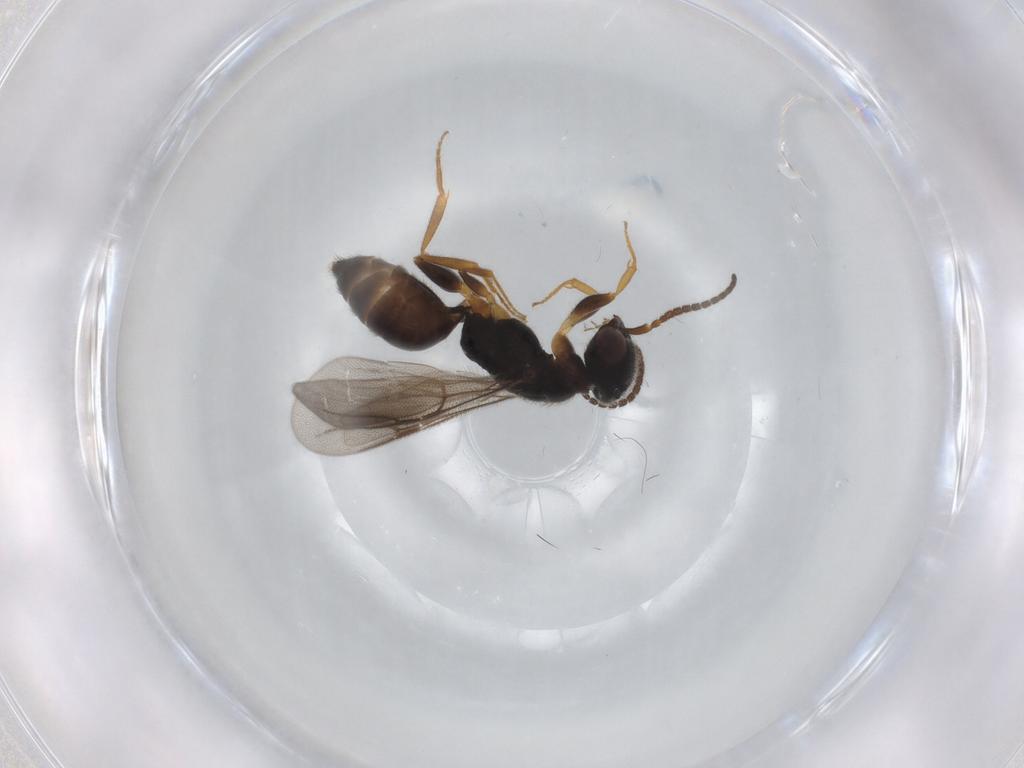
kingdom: Animalia
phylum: Arthropoda
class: Insecta
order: Hymenoptera
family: Bethylidae
